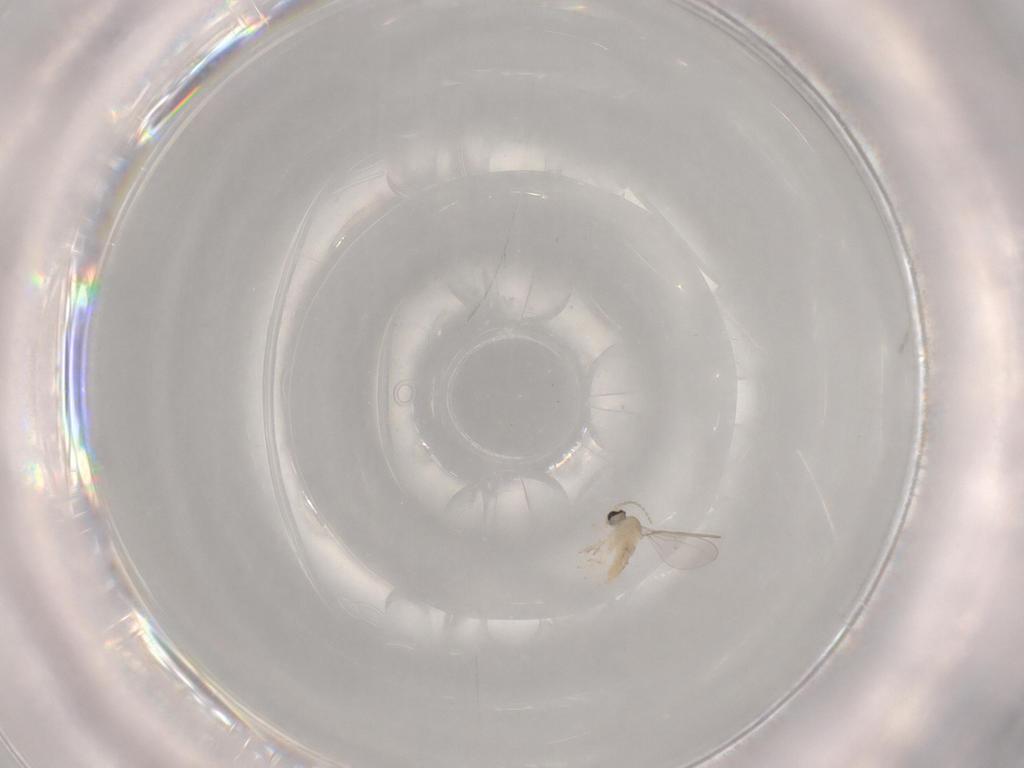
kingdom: Animalia
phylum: Arthropoda
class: Insecta
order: Diptera
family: Cecidomyiidae
